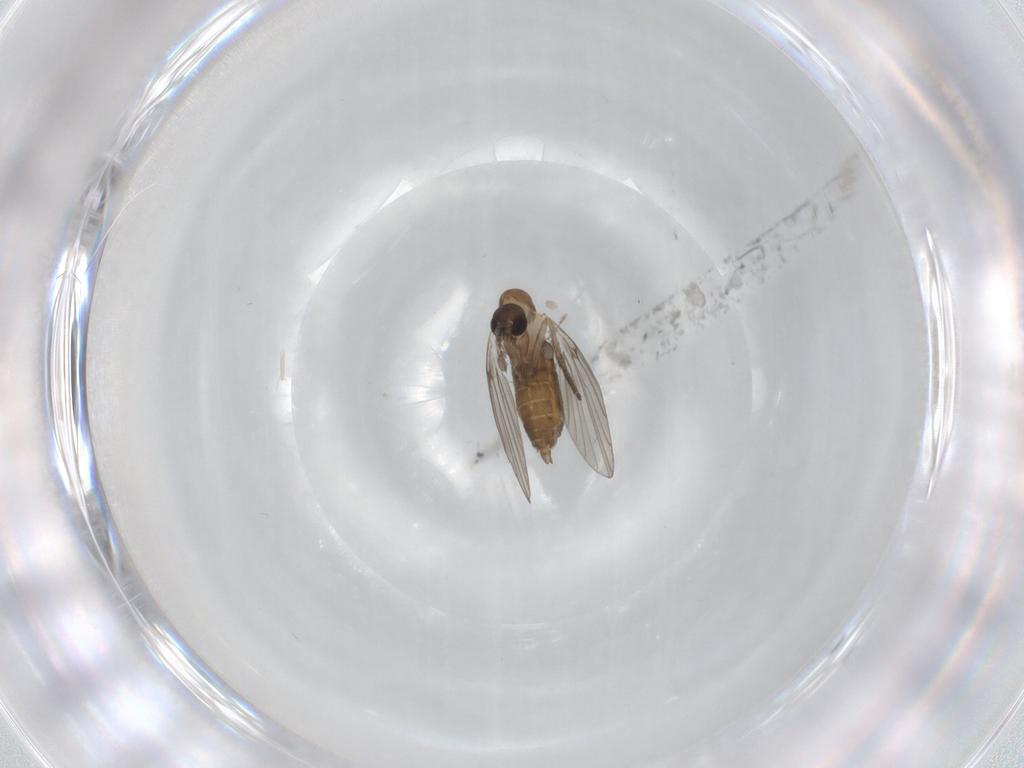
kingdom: Animalia
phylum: Arthropoda
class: Insecta
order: Diptera
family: Psychodidae
